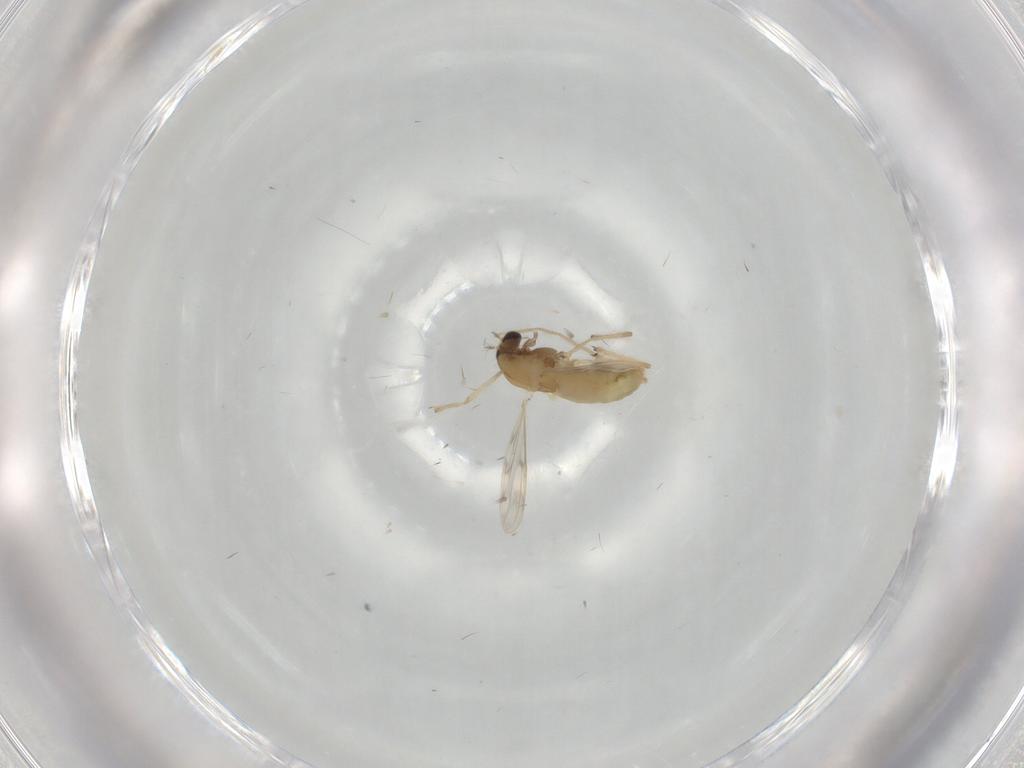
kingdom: Animalia
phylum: Arthropoda
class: Insecta
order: Diptera
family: Chironomidae
